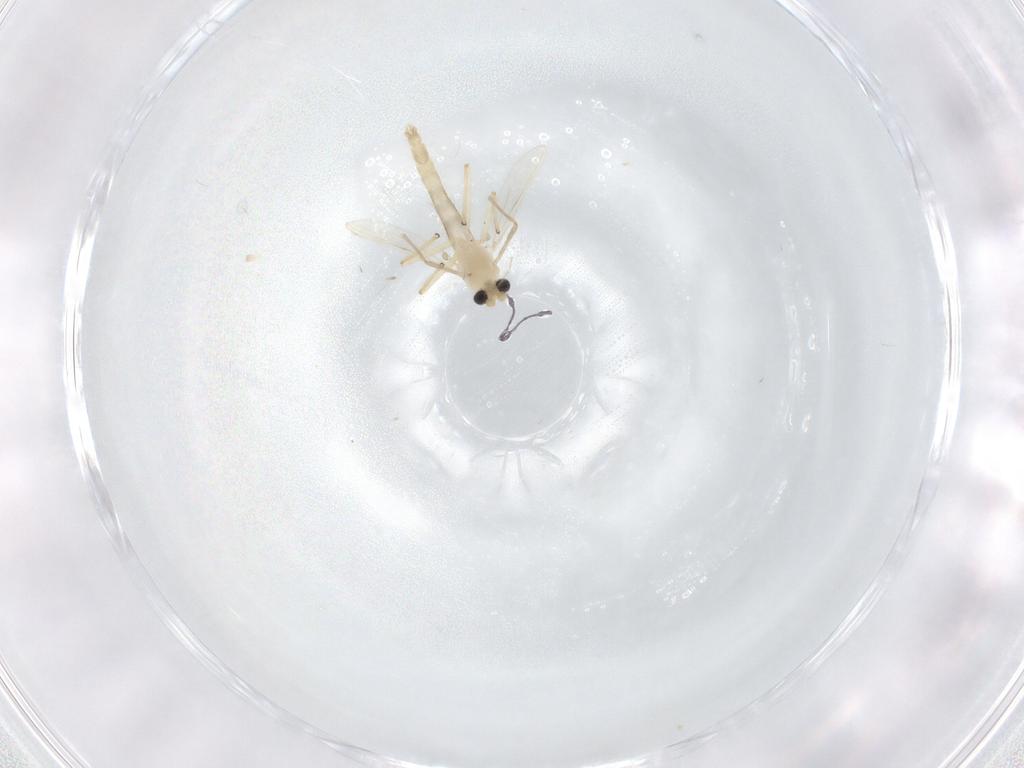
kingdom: Animalia
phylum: Arthropoda
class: Insecta
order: Diptera
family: Chironomidae
